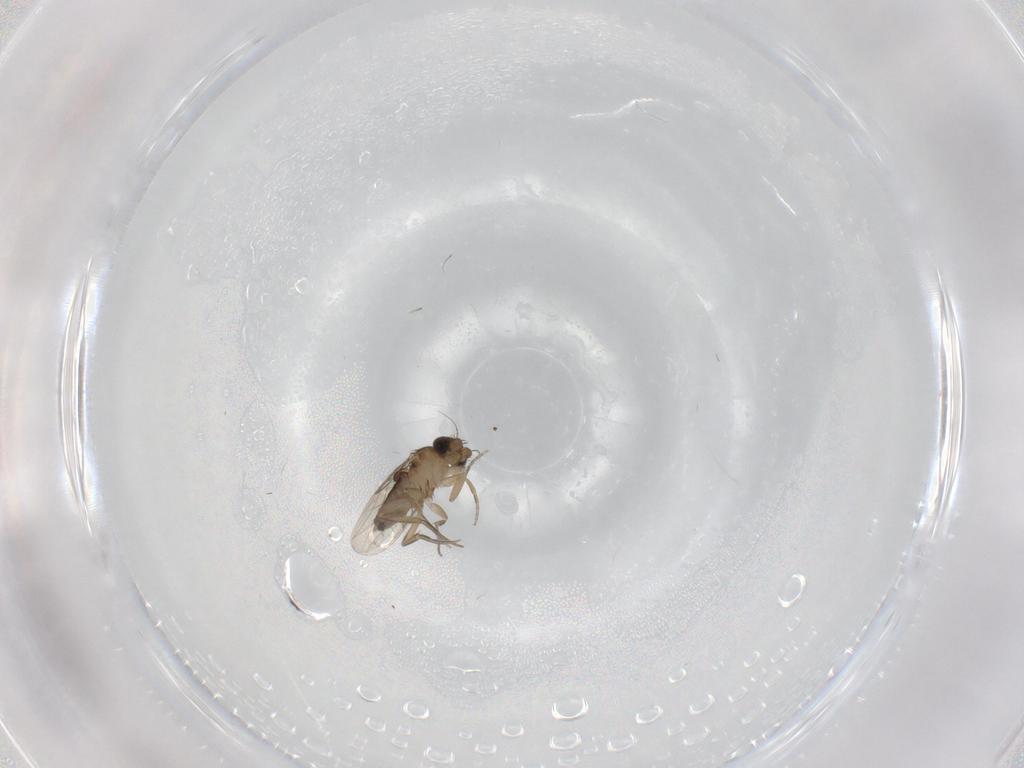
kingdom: Animalia
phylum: Arthropoda
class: Insecta
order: Diptera
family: Phoridae
